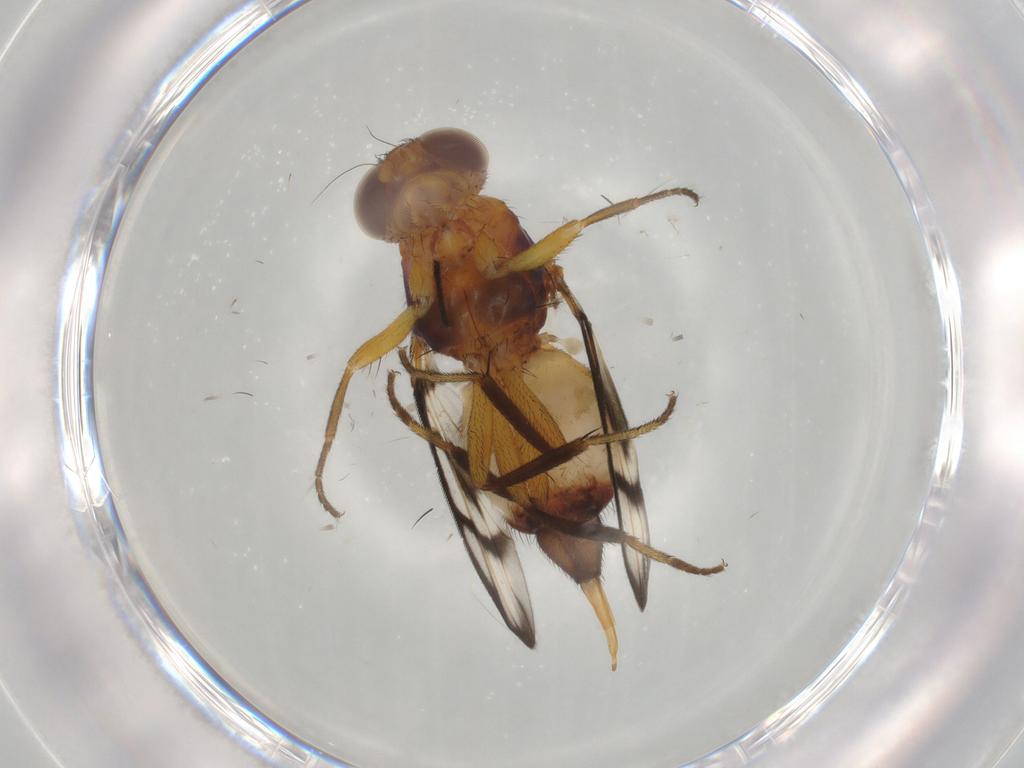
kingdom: Animalia
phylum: Arthropoda
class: Insecta
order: Diptera
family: Ulidiidae
